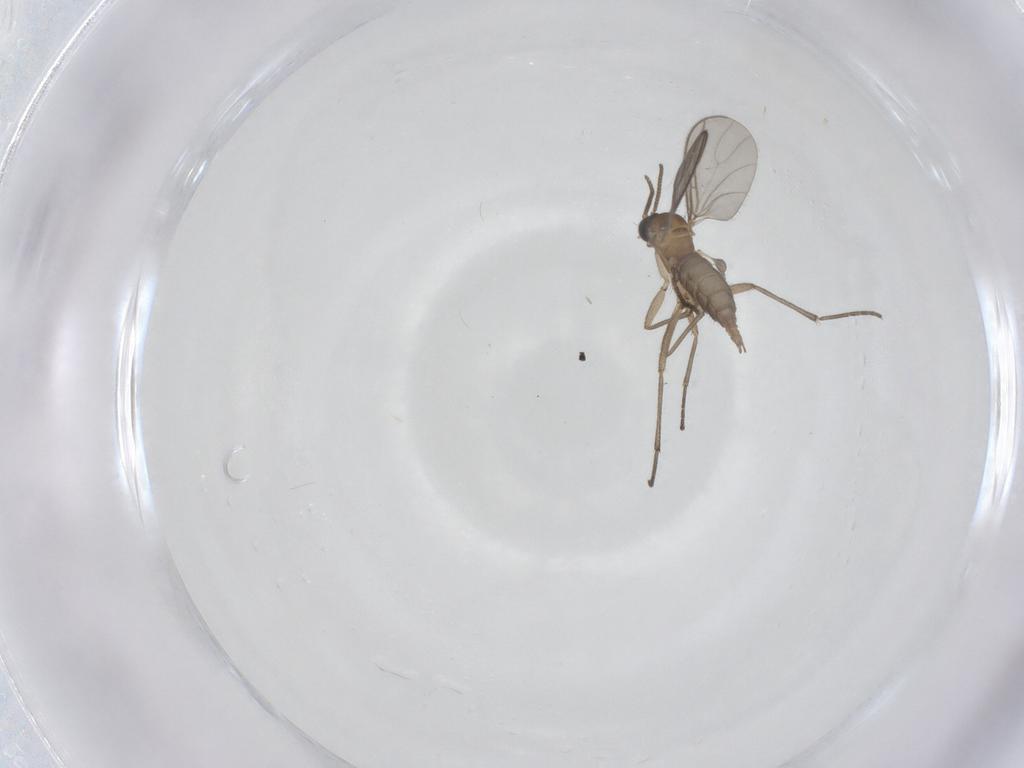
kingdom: Animalia
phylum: Arthropoda
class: Insecta
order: Diptera
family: Sciaridae
